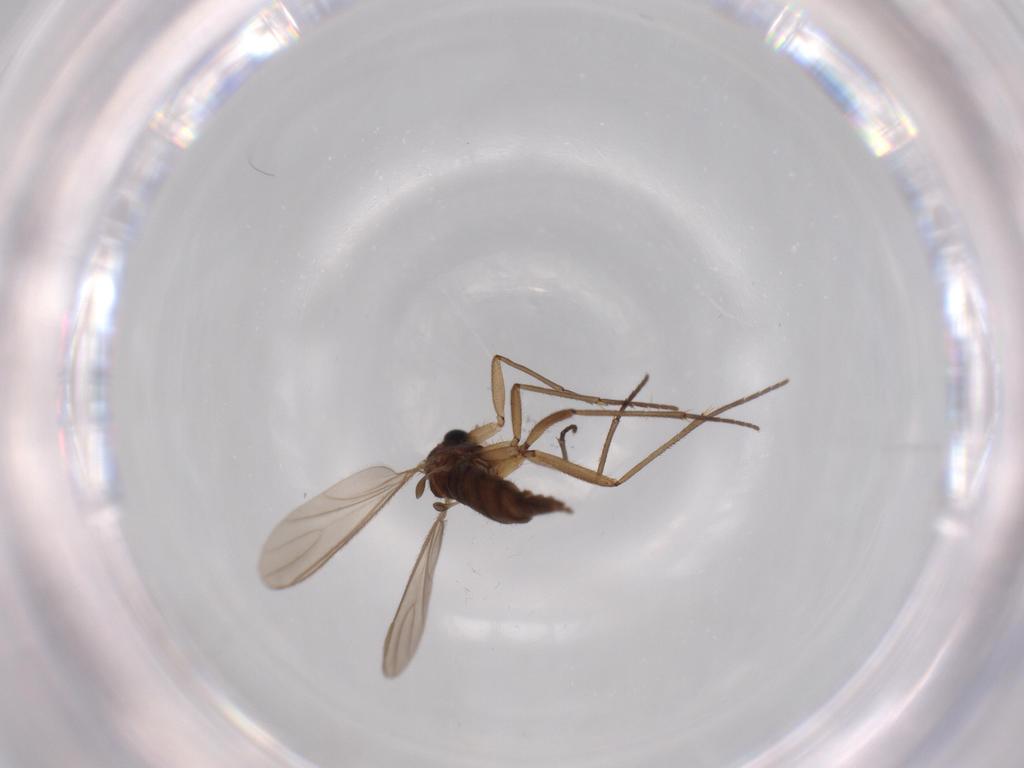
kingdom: Animalia
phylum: Arthropoda
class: Insecta
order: Diptera
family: Sciaridae
